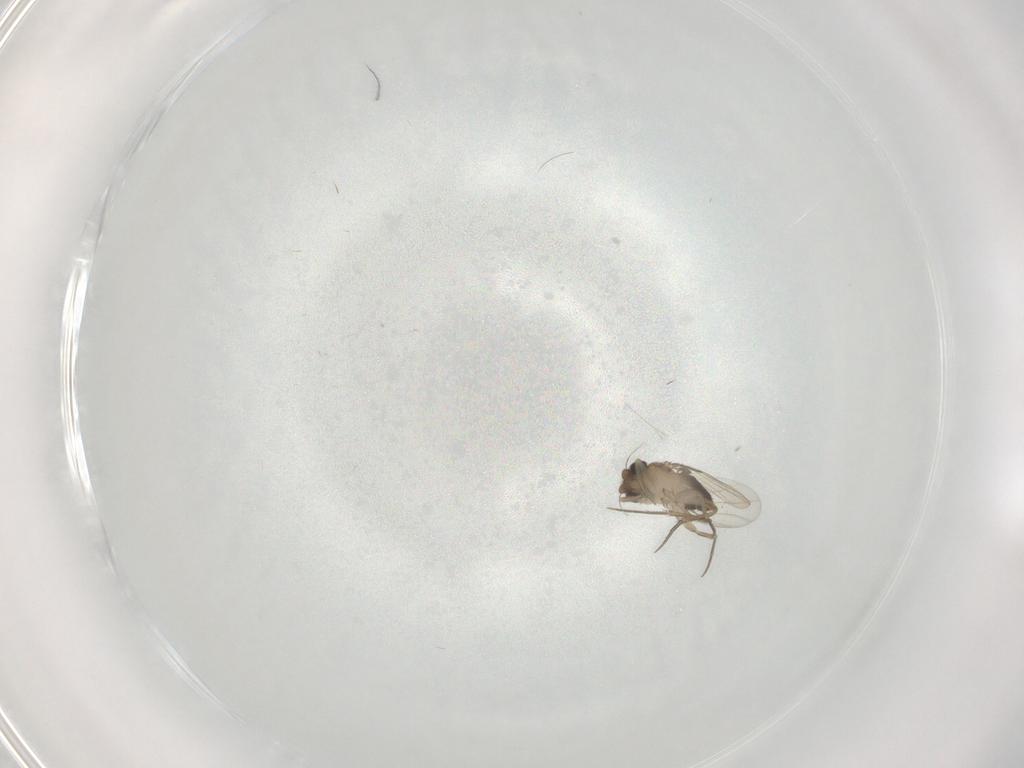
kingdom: Animalia
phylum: Arthropoda
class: Insecta
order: Diptera
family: Phoridae
